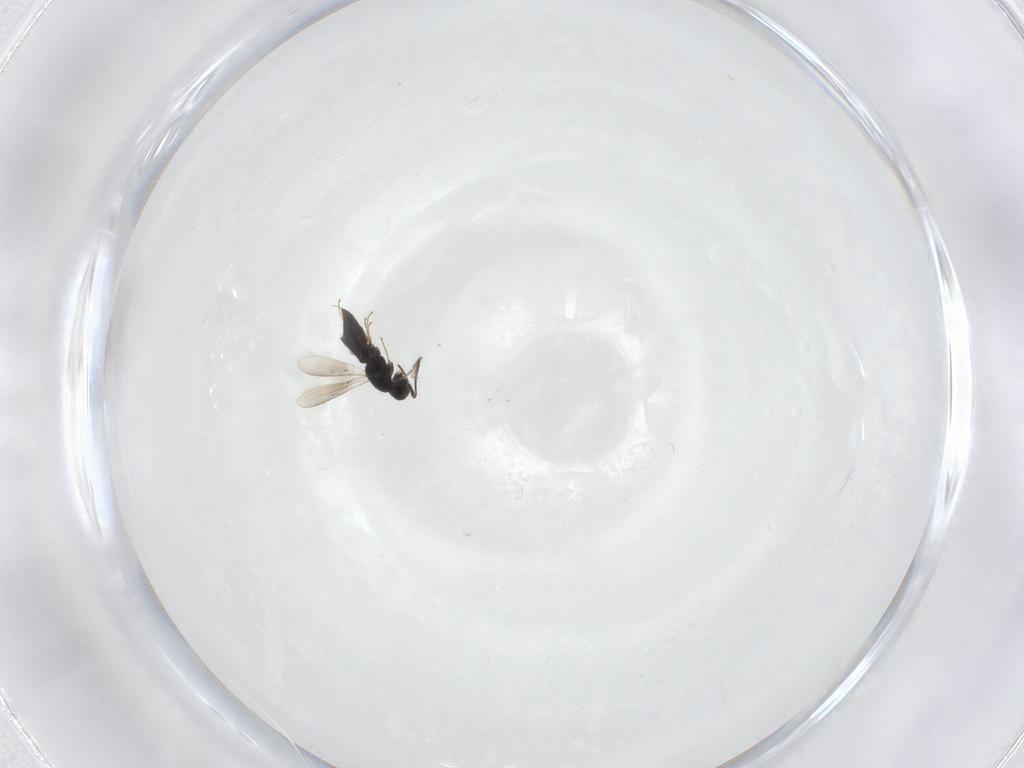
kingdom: Animalia
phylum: Arthropoda
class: Insecta
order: Hymenoptera
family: Scelionidae
